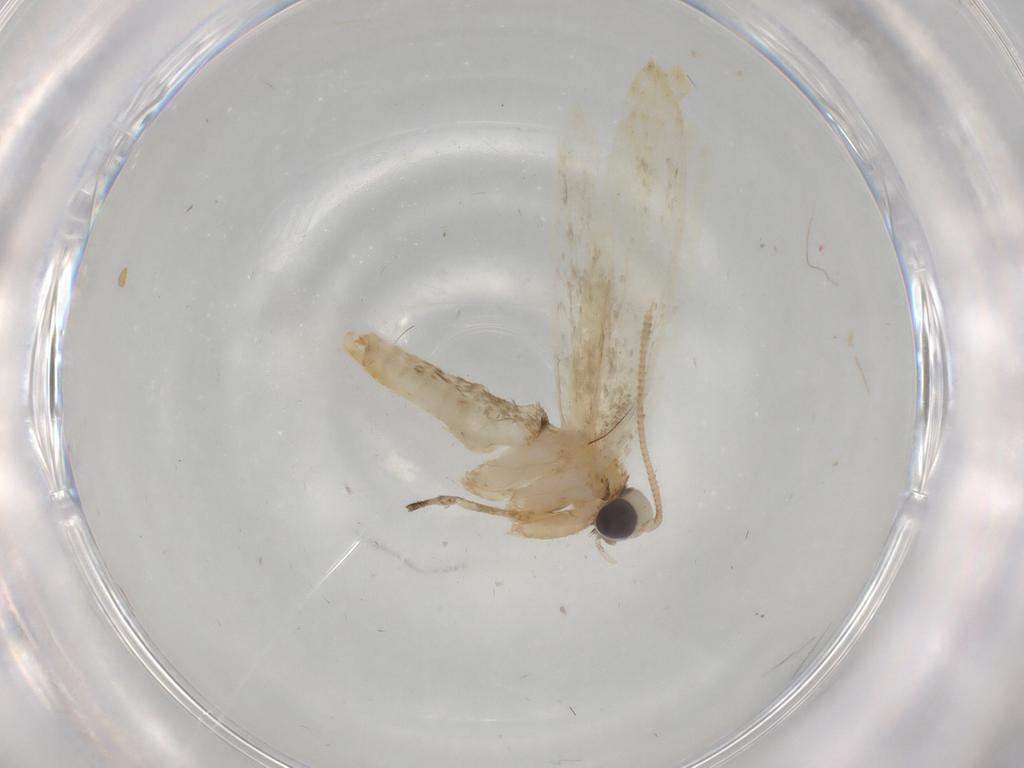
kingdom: Animalia
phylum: Arthropoda
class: Insecta
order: Lepidoptera
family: Tineidae
